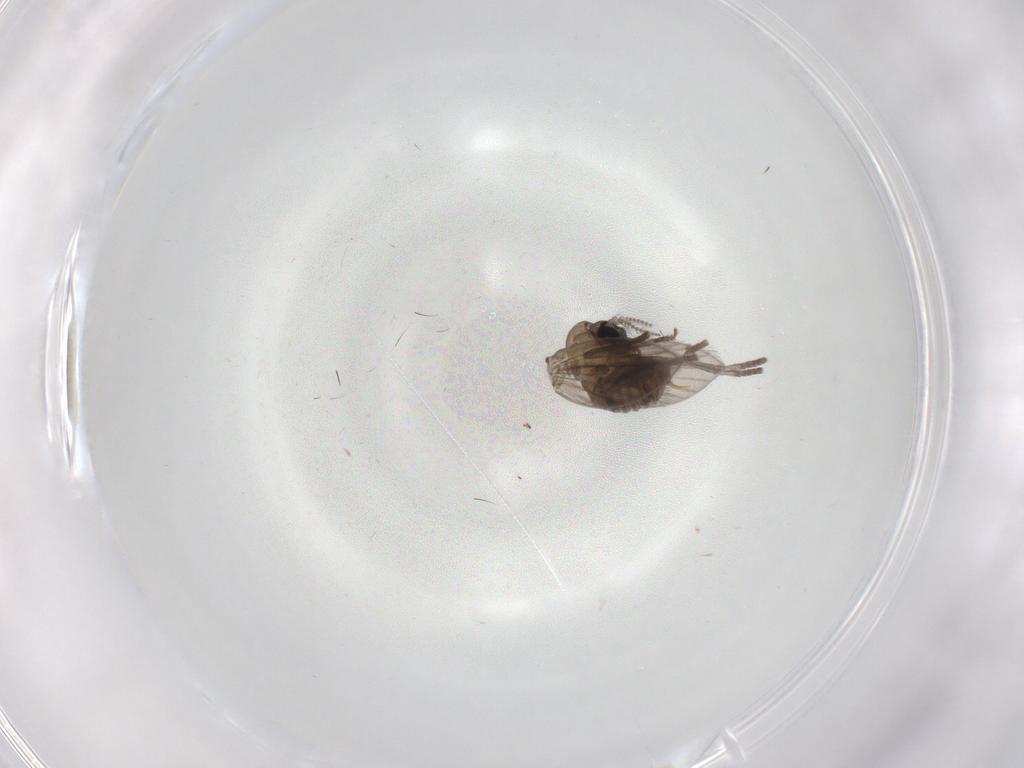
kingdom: Animalia
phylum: Arthropoda
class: Insecta
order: Diptera
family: Psychodidae
